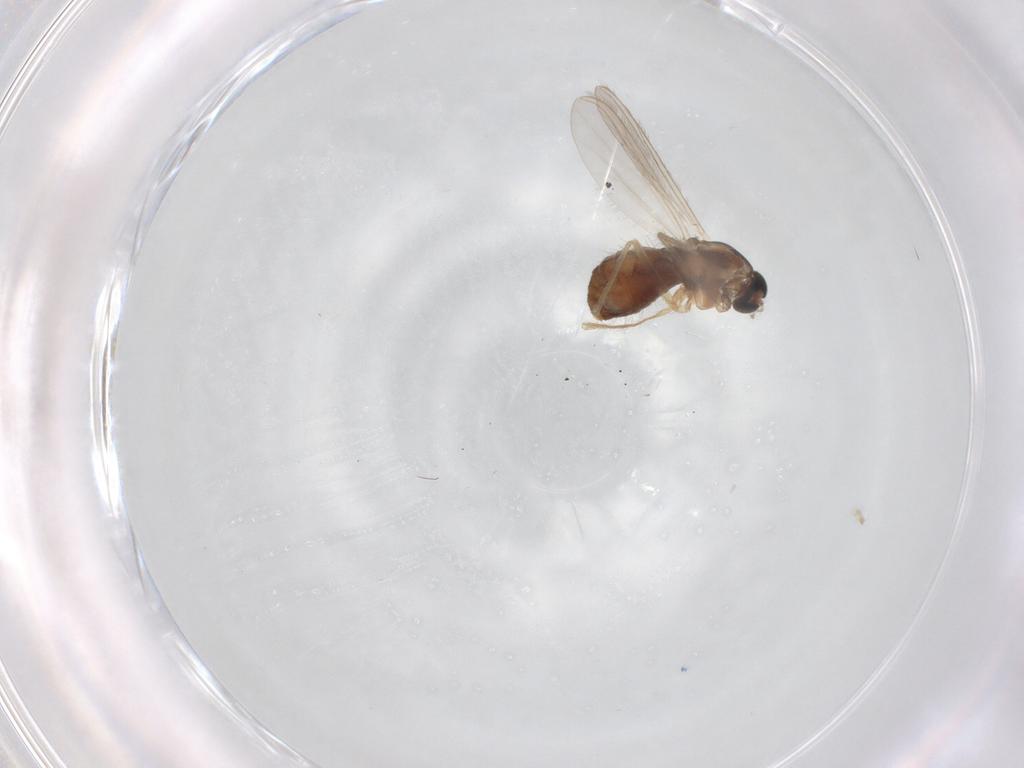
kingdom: Animalia
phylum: Arthropoda
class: Insecta
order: Diptera
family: Chironomidae
